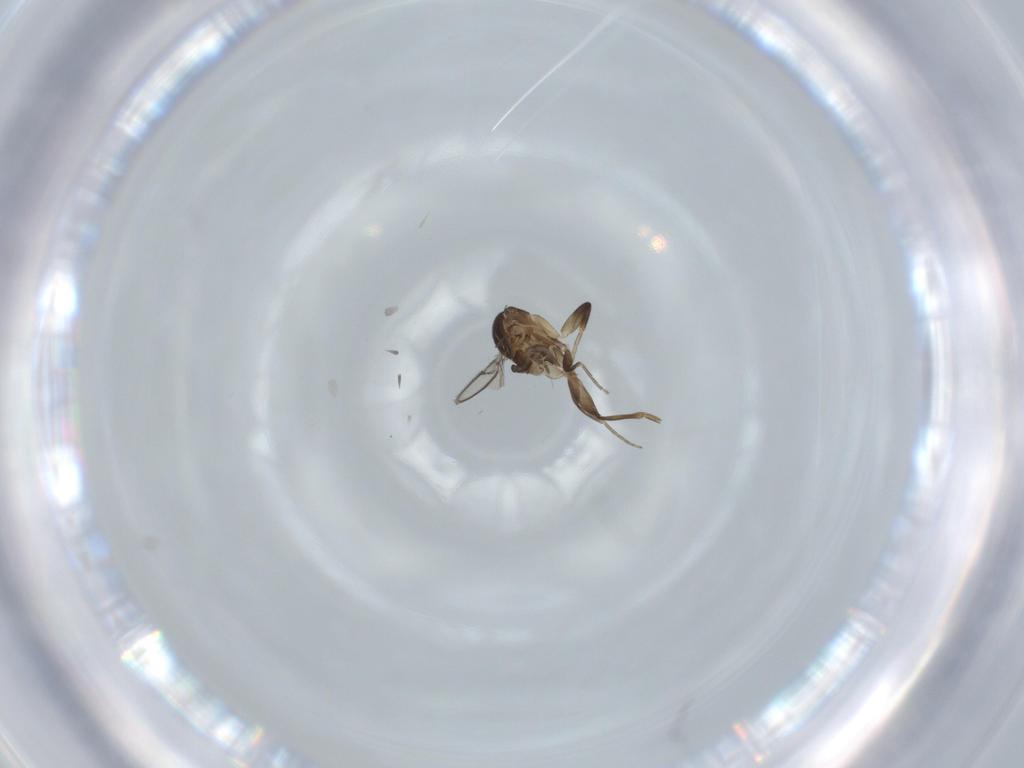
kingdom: Animalia
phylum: Arthropoda
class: Insecta
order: Diptera
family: Phoridae
